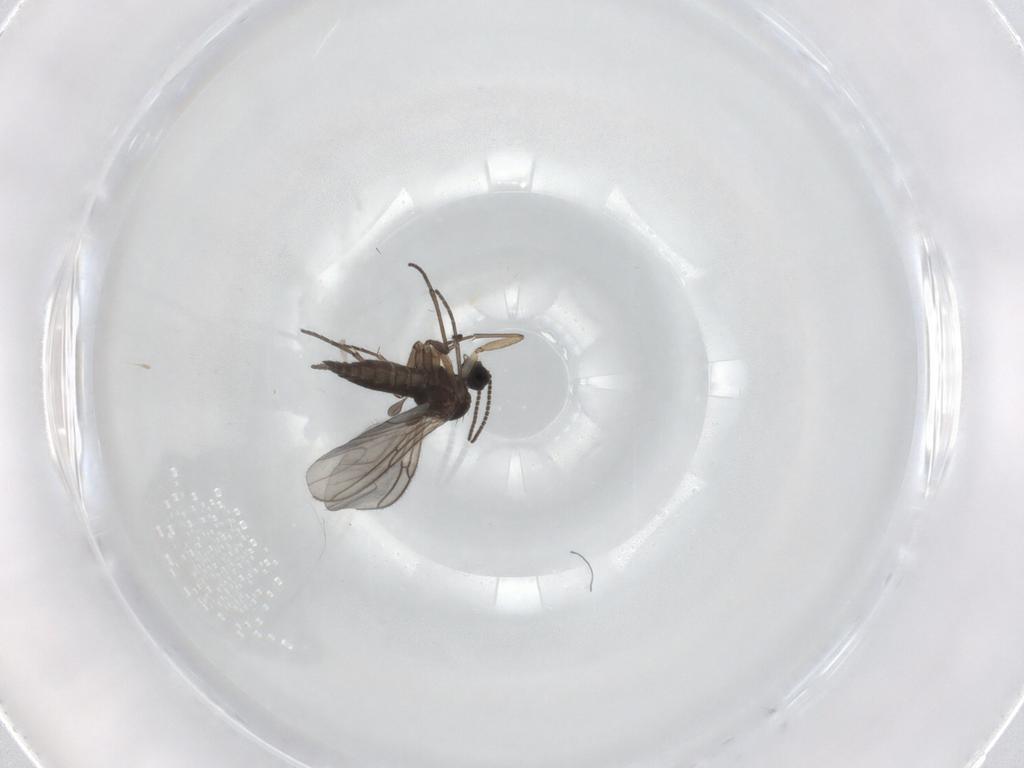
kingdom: Animalia
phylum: Arthropoda
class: Insecta
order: Diptera
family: Sciaridae
